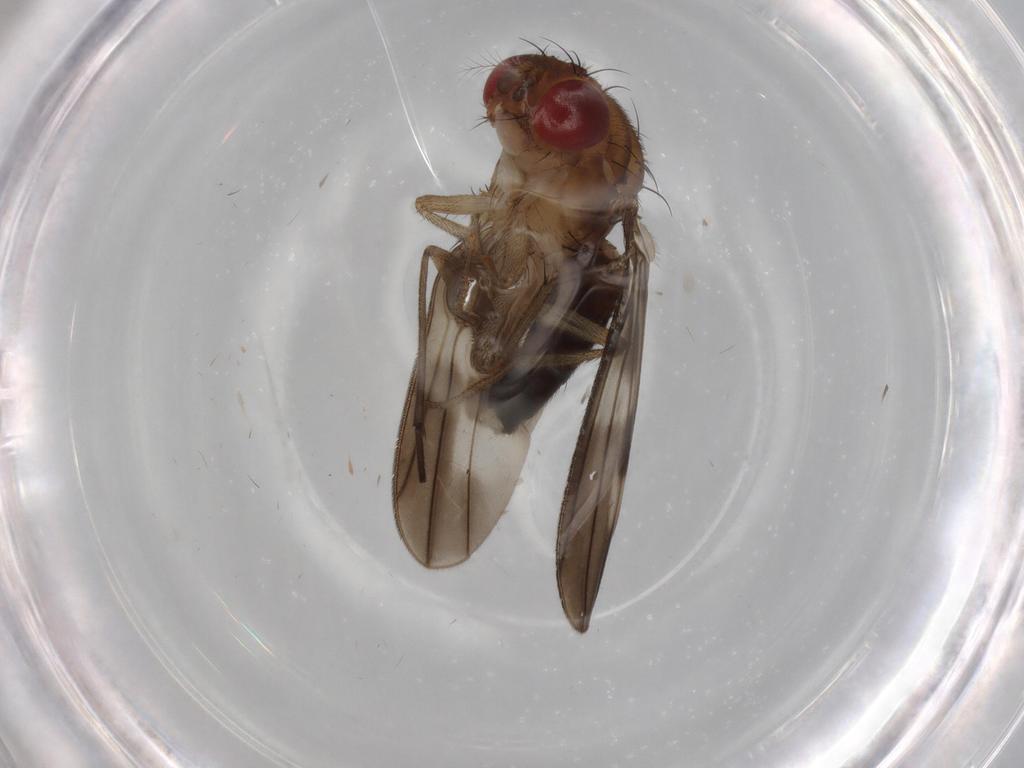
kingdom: Animalia
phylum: Arthropoda
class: Insecta
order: Diptera
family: Drosophilidae
